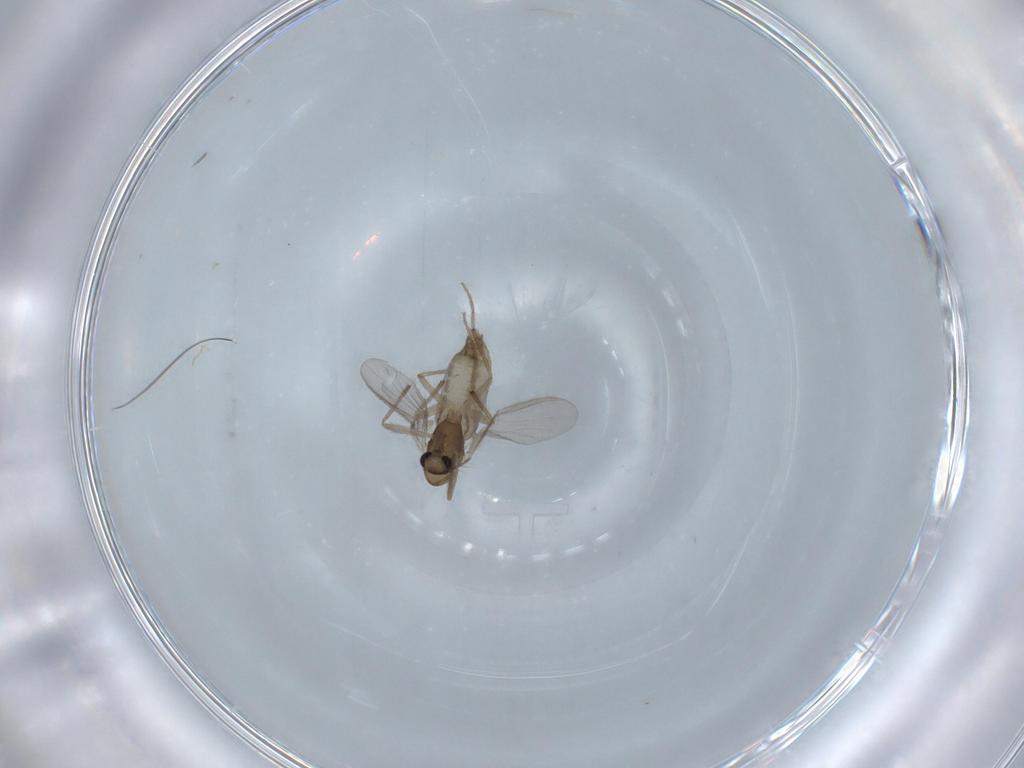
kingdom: Animalia
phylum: Arthropoda
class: Insecta
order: Diptera
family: Chironomidae
